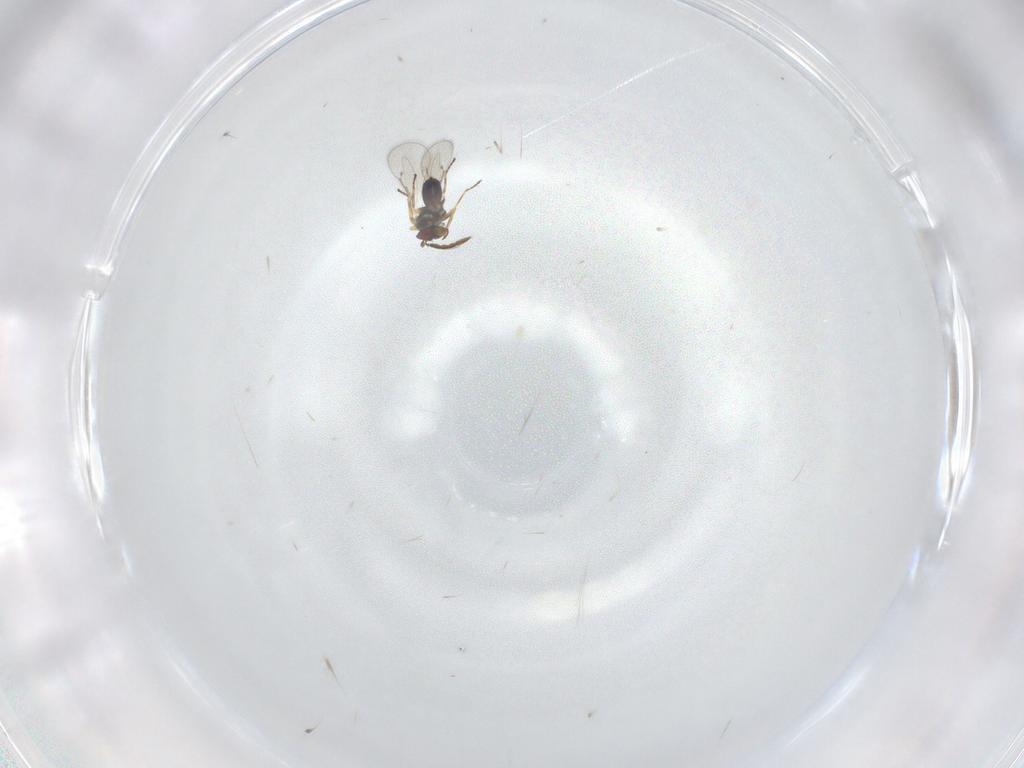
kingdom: Animalia
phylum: Arthropoda
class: Insecta
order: Hymenoptera
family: Eulophidae
